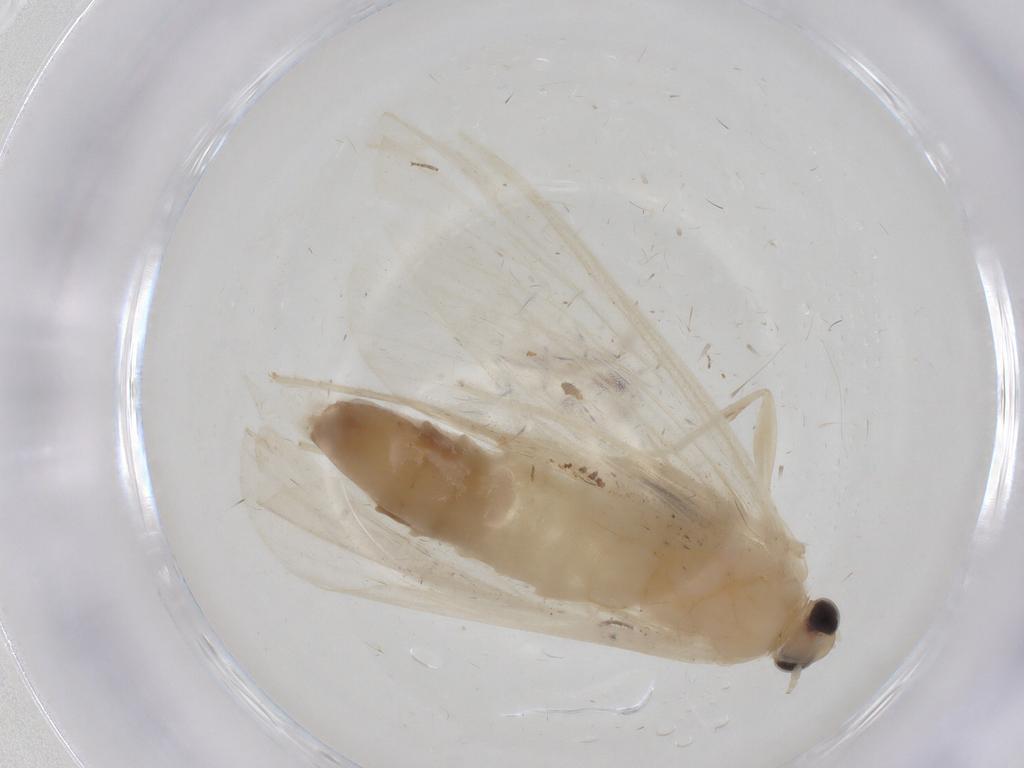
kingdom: Animalia
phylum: Arthropoda
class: Insecta
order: Lepidoptera
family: Crambidae
